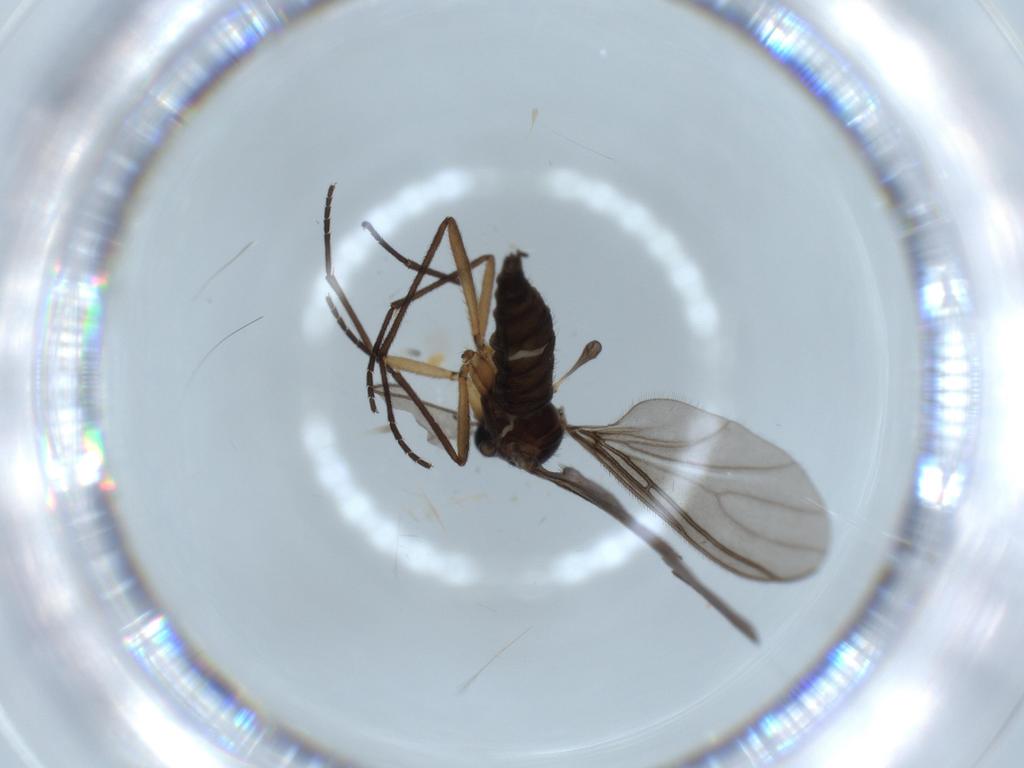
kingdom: Animalia
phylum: Arthropoda
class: Insecta
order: Diptera
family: Sciaridae
